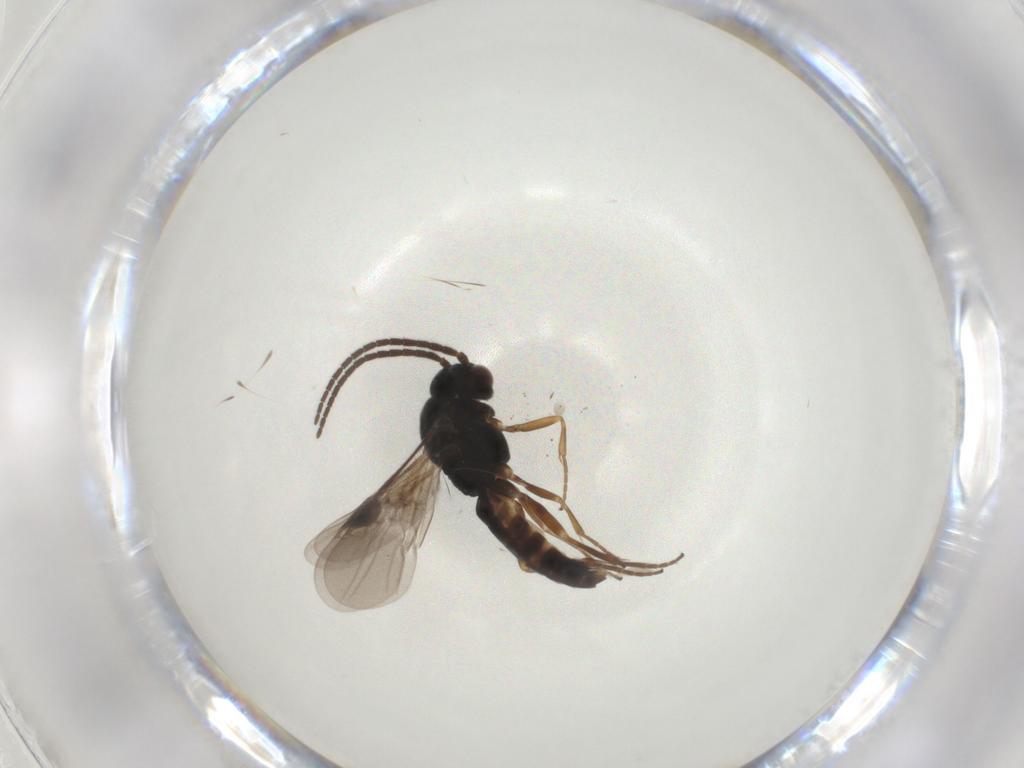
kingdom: Animalia
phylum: Arthropoda
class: Insecta
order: Hymenoptera
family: Braconidae
